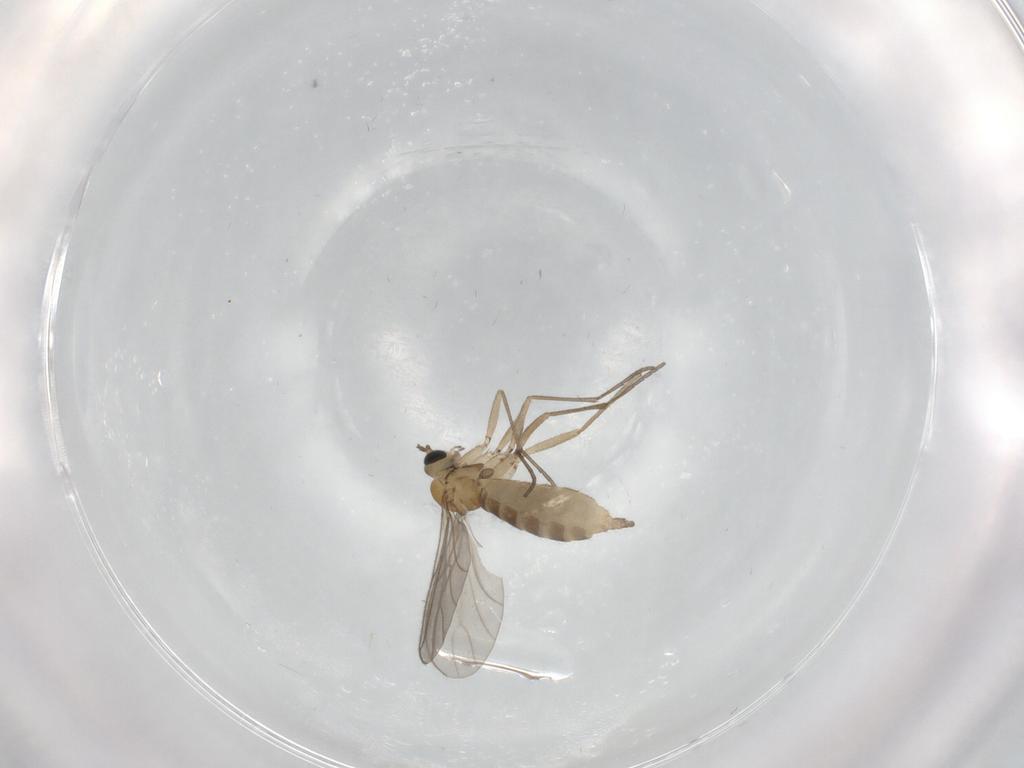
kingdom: Animalia
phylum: Arthropoda
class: Insecta
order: Diptera
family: Sciaridae
